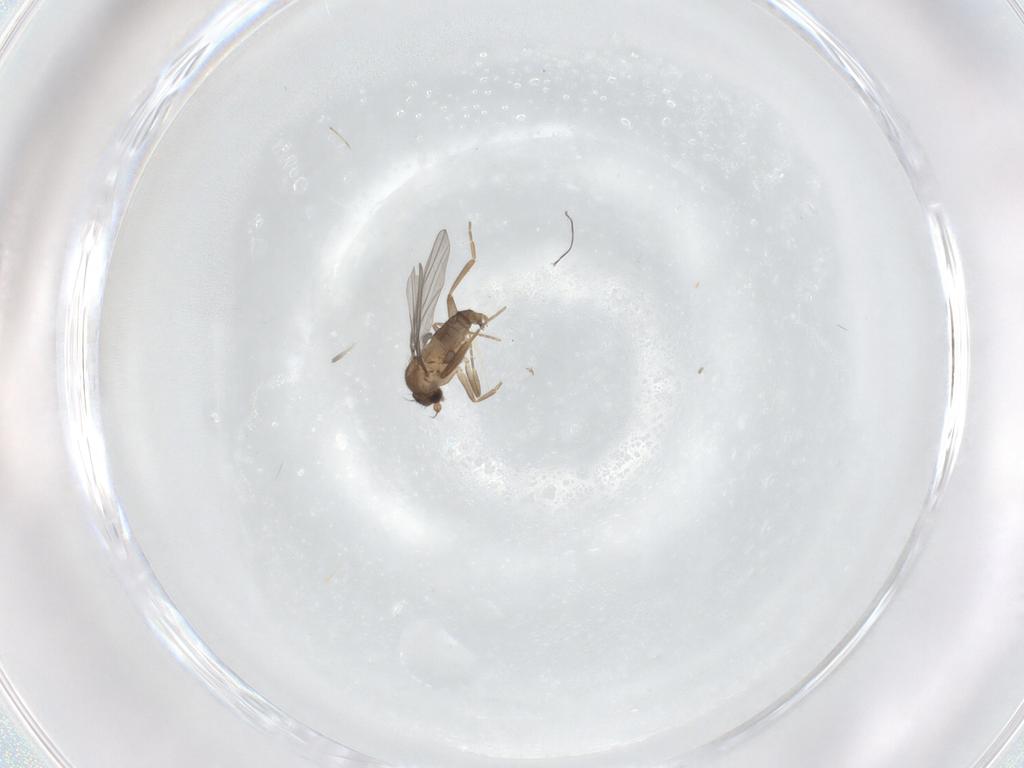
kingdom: Animalia
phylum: Arthropoda
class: Insecta
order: Diptera
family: Cecidomyiidae
